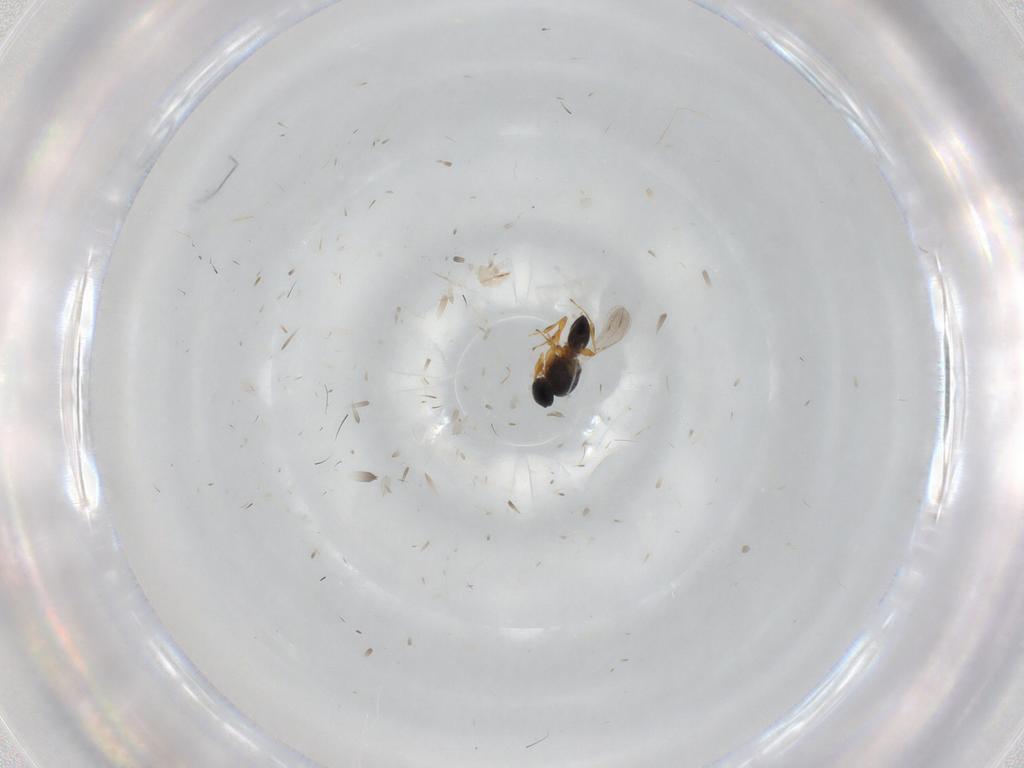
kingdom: Animalia
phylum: Arthropoda
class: Insecta
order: Hymenoptera
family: Platygastridae
